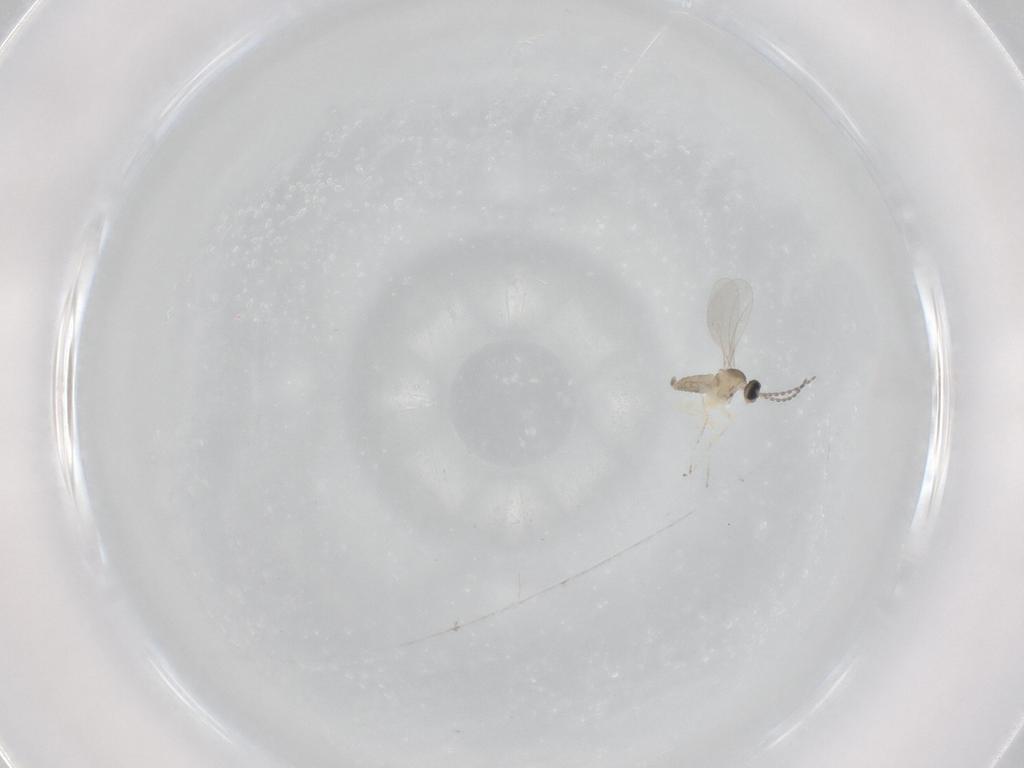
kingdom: Animalia
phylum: Arthropoda
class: Insecta
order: Diptera
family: Cecidomyiidae
